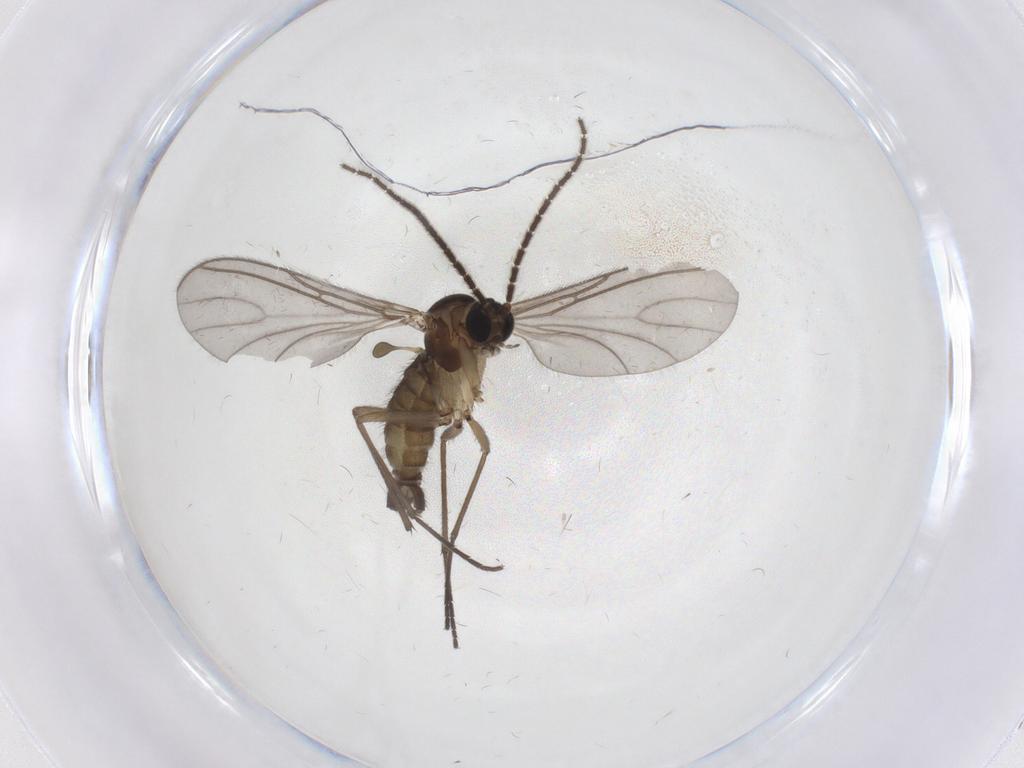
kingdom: Animalia
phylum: Arthropoda
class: Insecta
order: Diptera
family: Sciaridae
